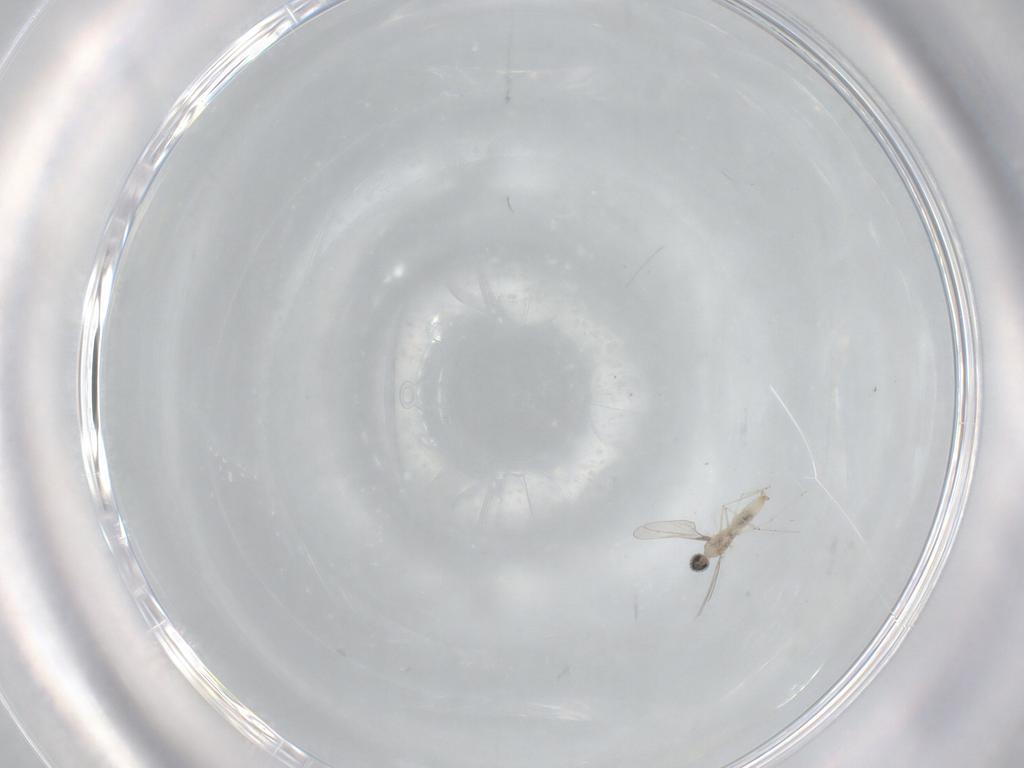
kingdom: Animalia
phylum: Arthropoda
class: Insecta
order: Diptera
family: Cecidomyiidae
